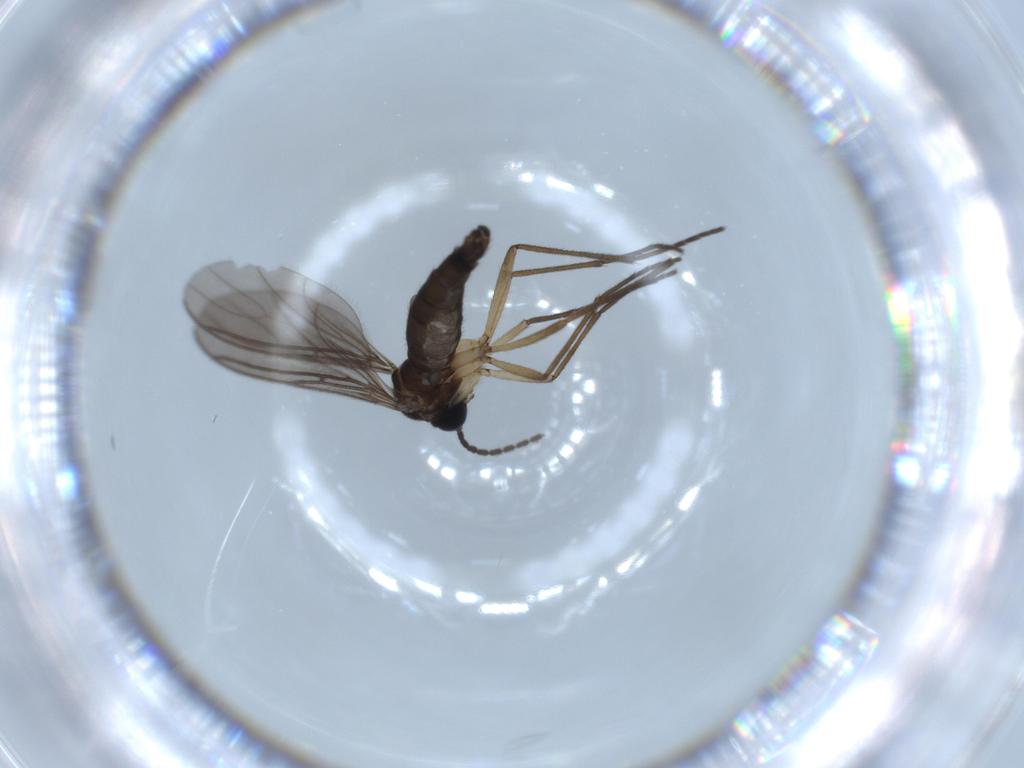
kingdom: Animalia
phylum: Arthropoda
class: Insecta
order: Diptera
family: Sciaridae
